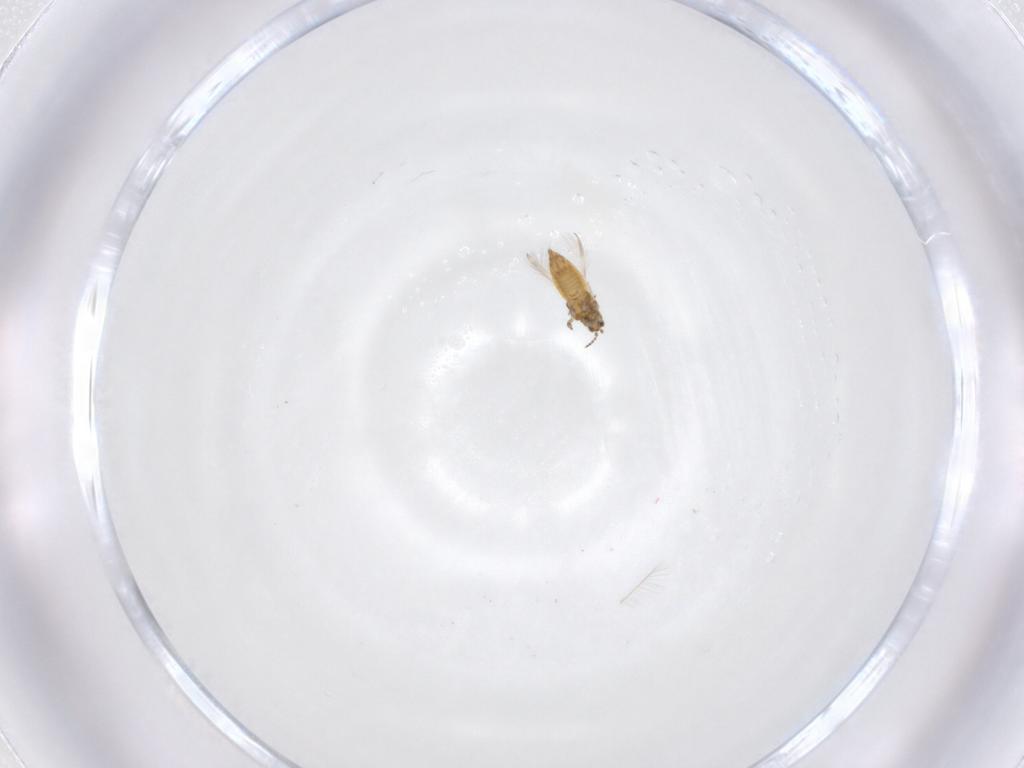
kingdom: Animalia
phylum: Arthropoda
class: Insecta
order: Thysanoptera
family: Thripidae
